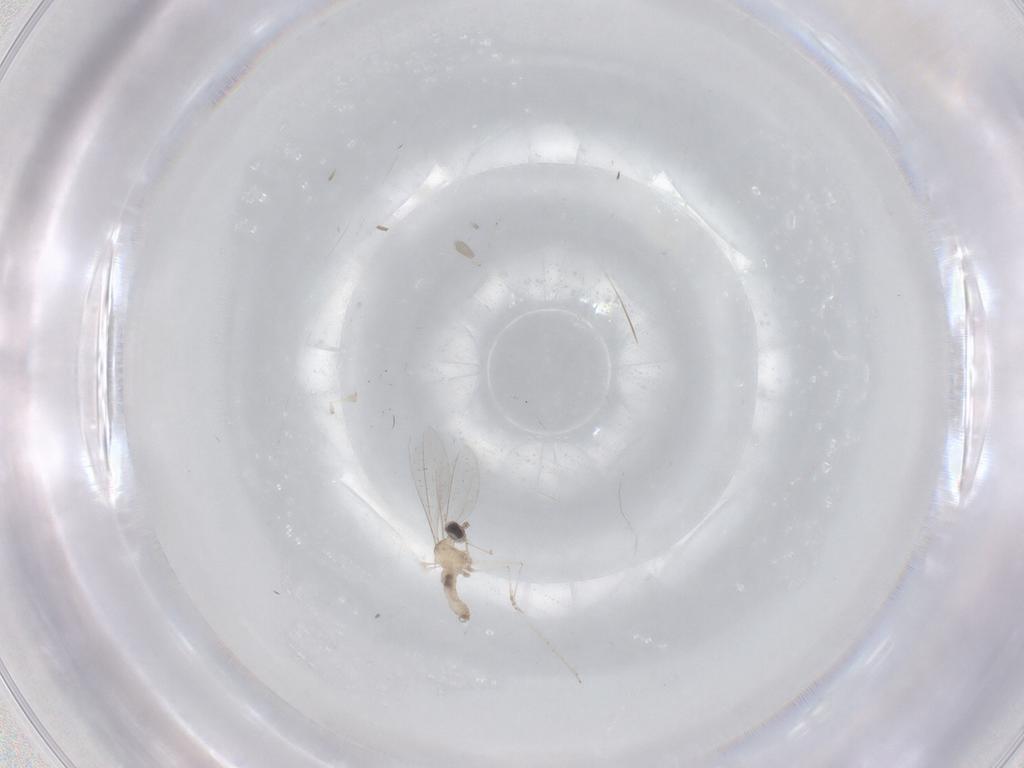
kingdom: Animalia
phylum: Arthropoda
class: Insecta
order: Diptera
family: Cecidomyiidae
